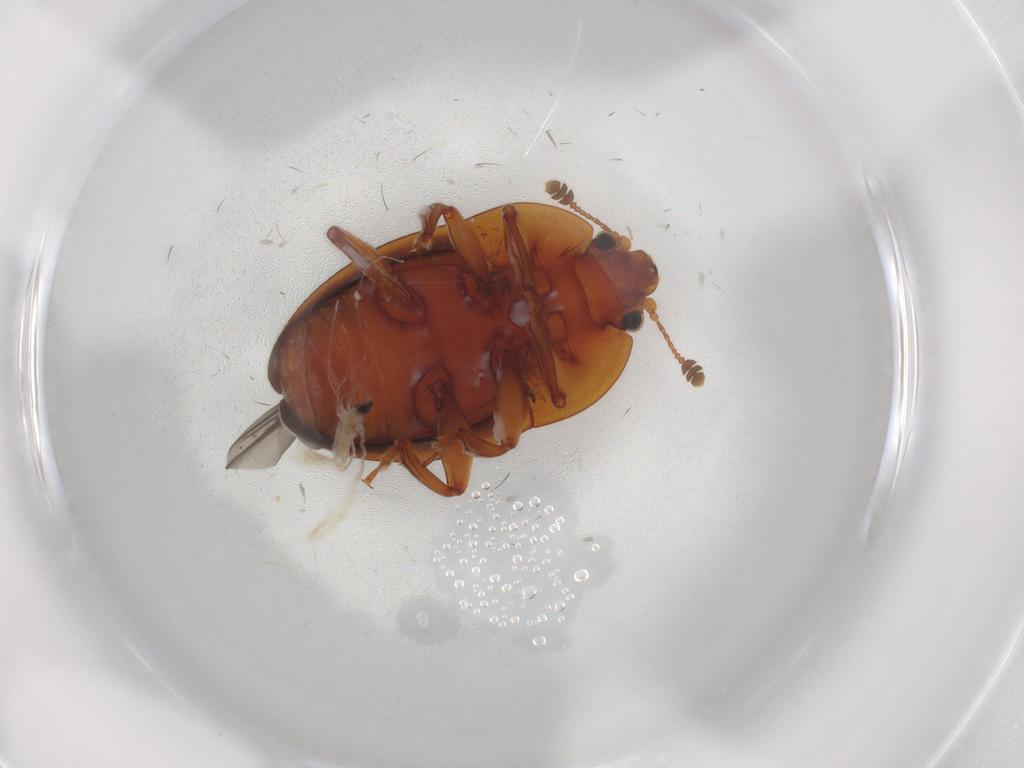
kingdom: Animalia
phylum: Arthropoda
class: Insecta
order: Coleoptera
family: Nitidulidae
